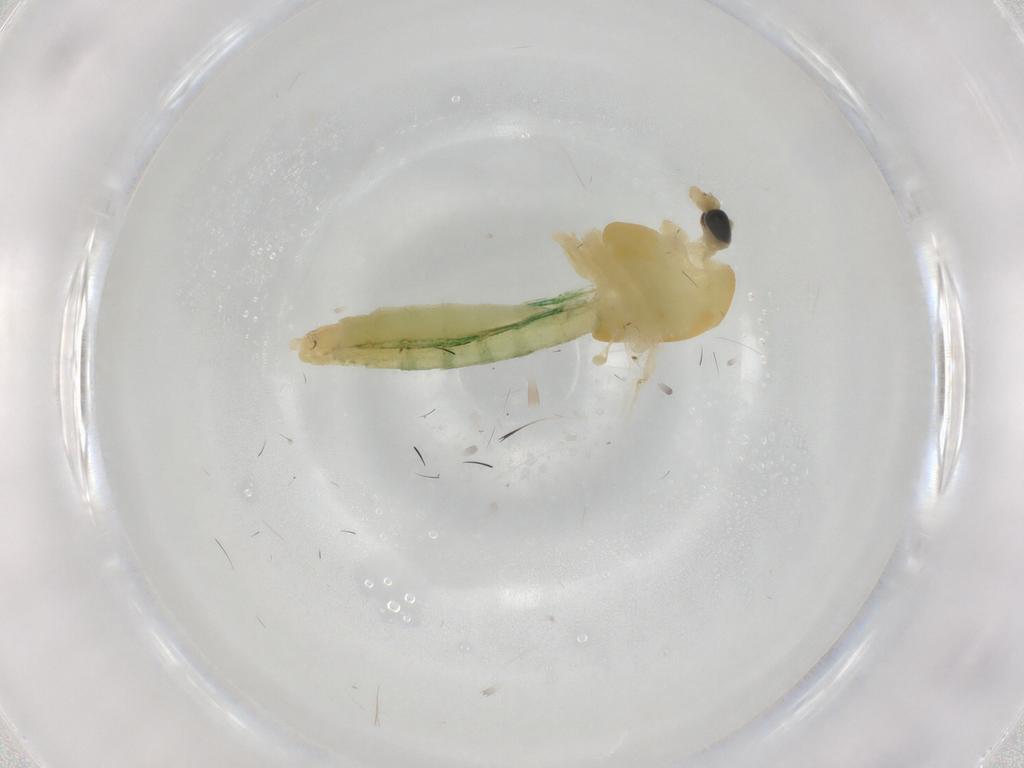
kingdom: Animalia
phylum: Arthropoda
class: Insecta
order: Diptera
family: Chironomidae
